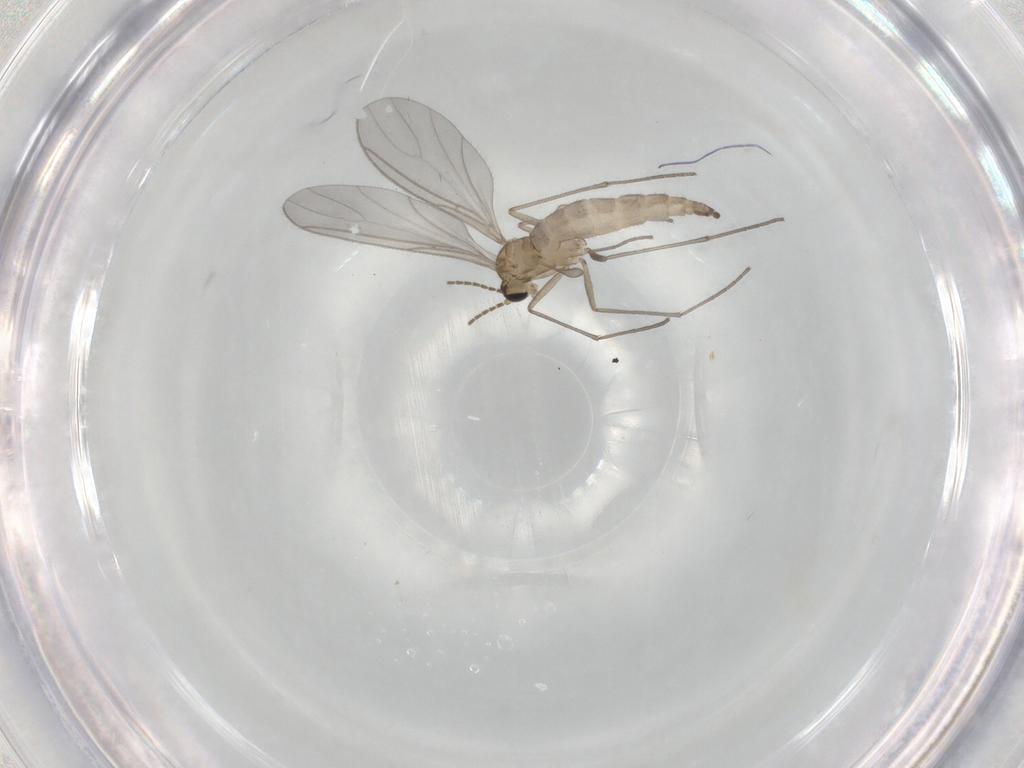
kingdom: Animalia
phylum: Arthropoda
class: Insecta
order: Diptera
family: Sciaridae
